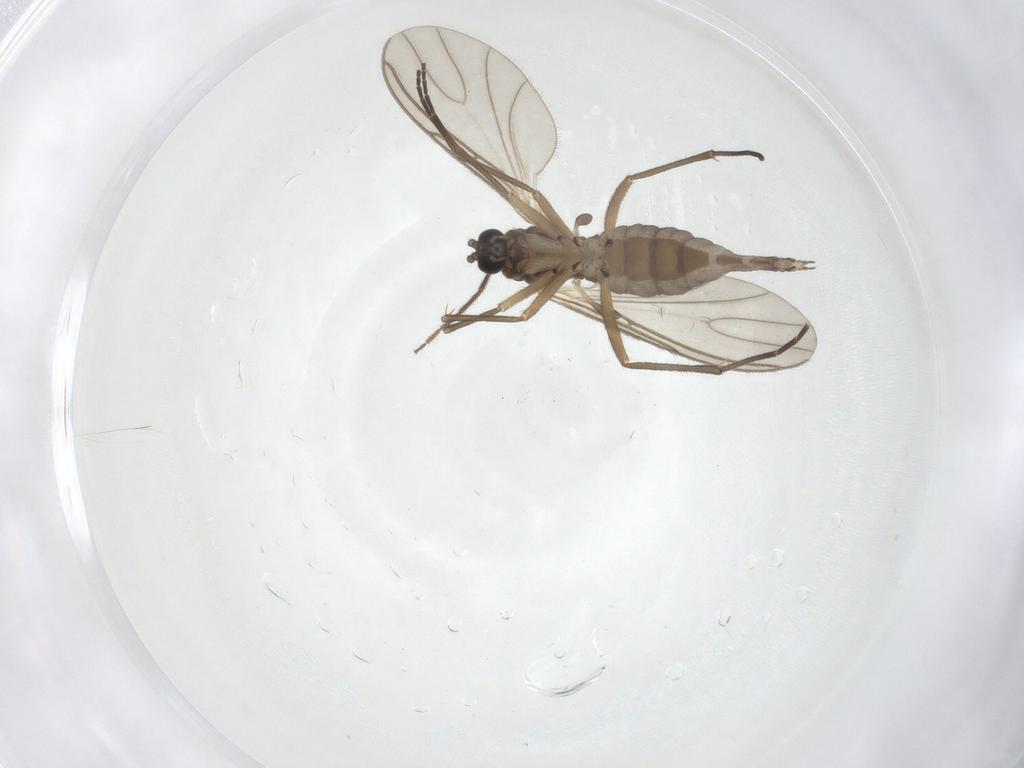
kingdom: Animalia
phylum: Arthropoda
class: Insecta
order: Diptera
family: Sciaridae
